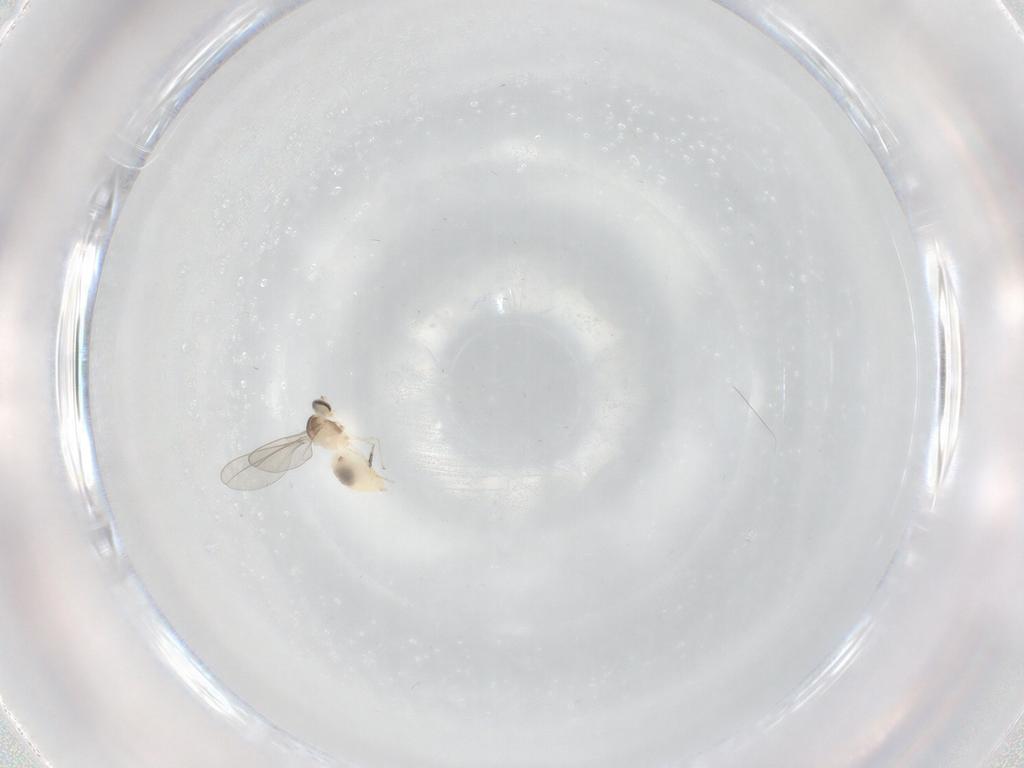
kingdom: Animalia
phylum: Arthropoda
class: Insecta
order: Diptera
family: Cecidomyiidae
